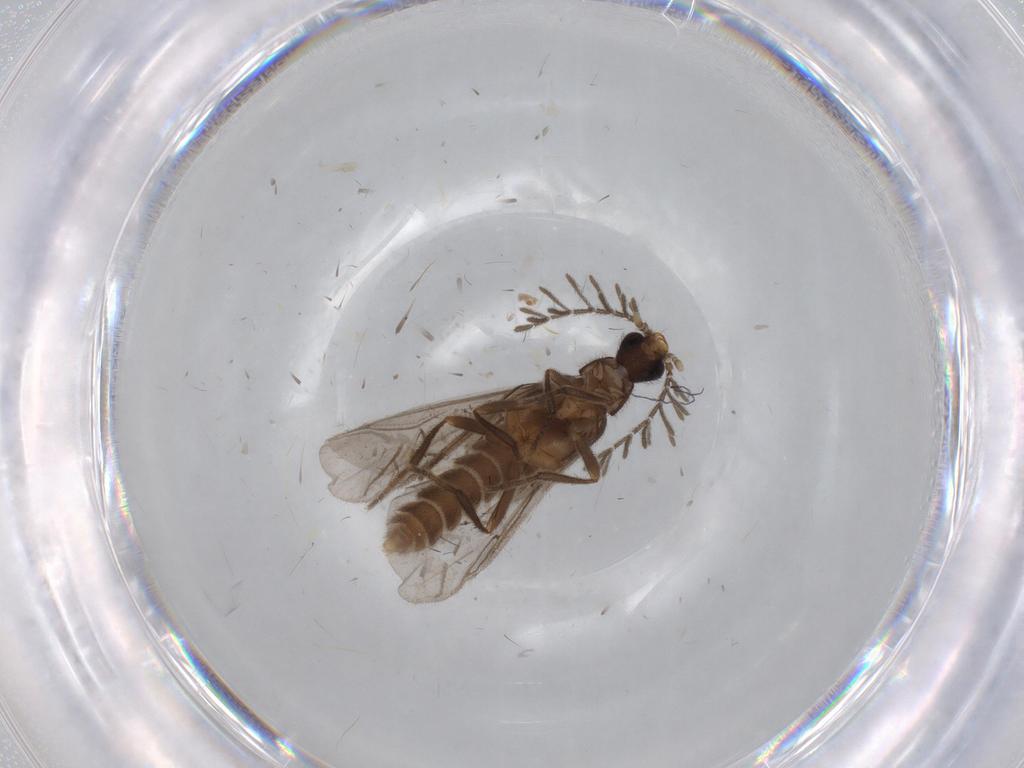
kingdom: Animalia
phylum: Arthropoda
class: Insecta
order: Coleoptera
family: Lycidae
